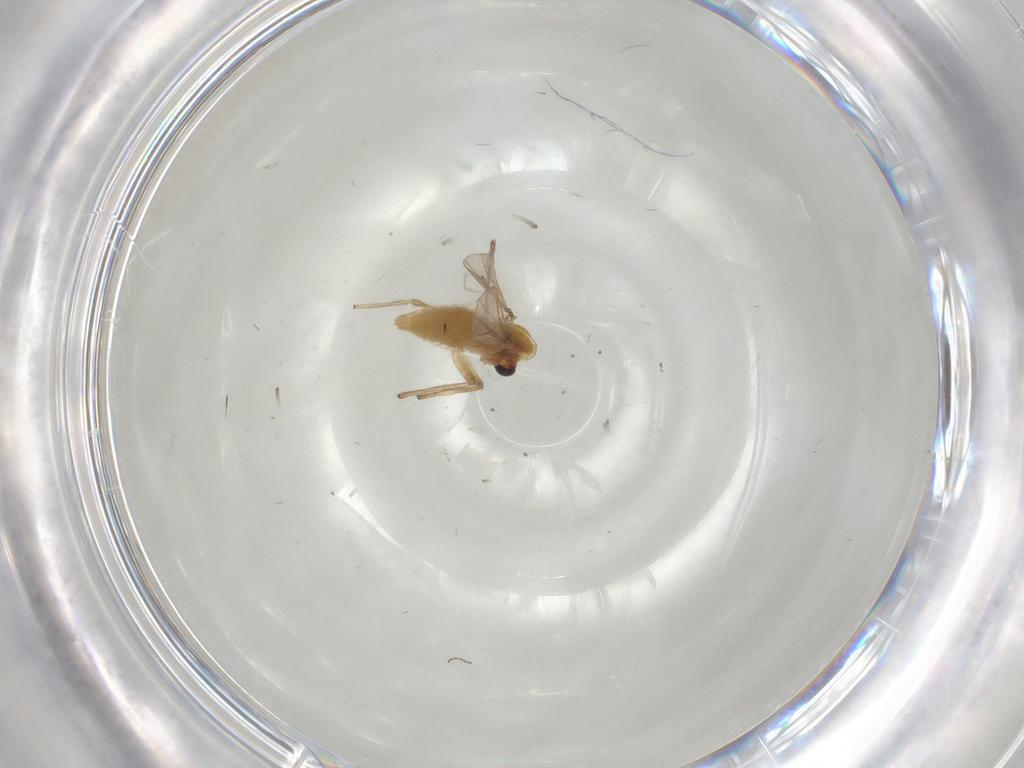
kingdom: Animalia
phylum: Arthropoda
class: Insecta
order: Diptera
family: Chironomidae
